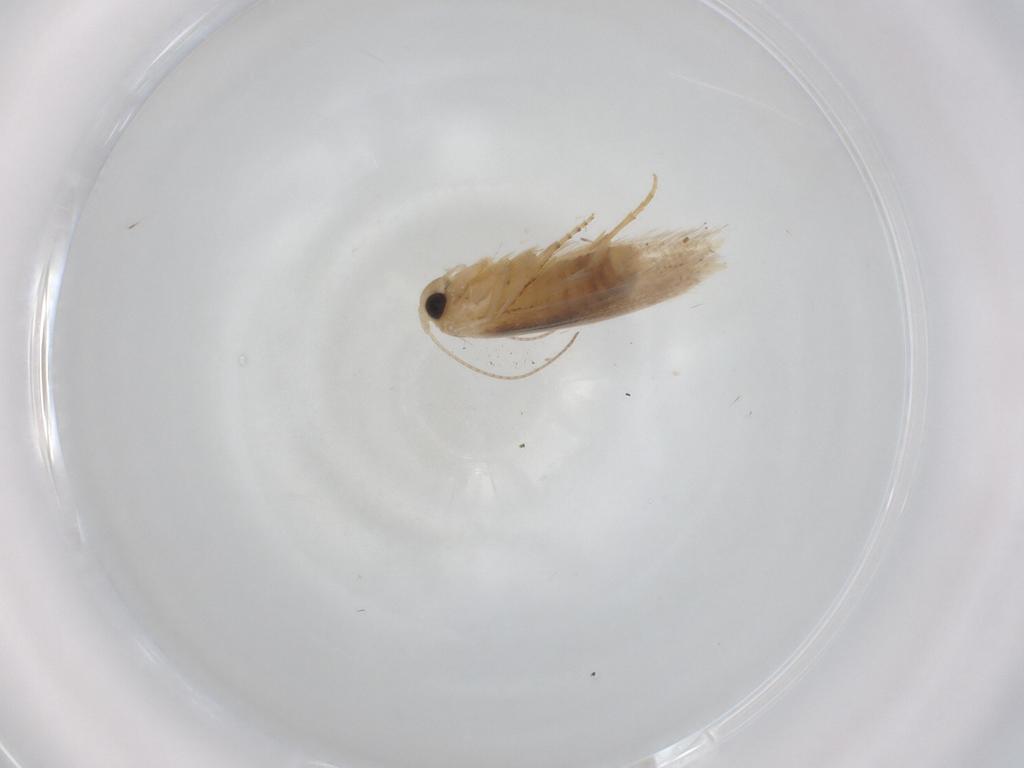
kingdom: Animalia
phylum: Arthropoda
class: Insecta
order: Lepidoptera
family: Bucculatricidae
